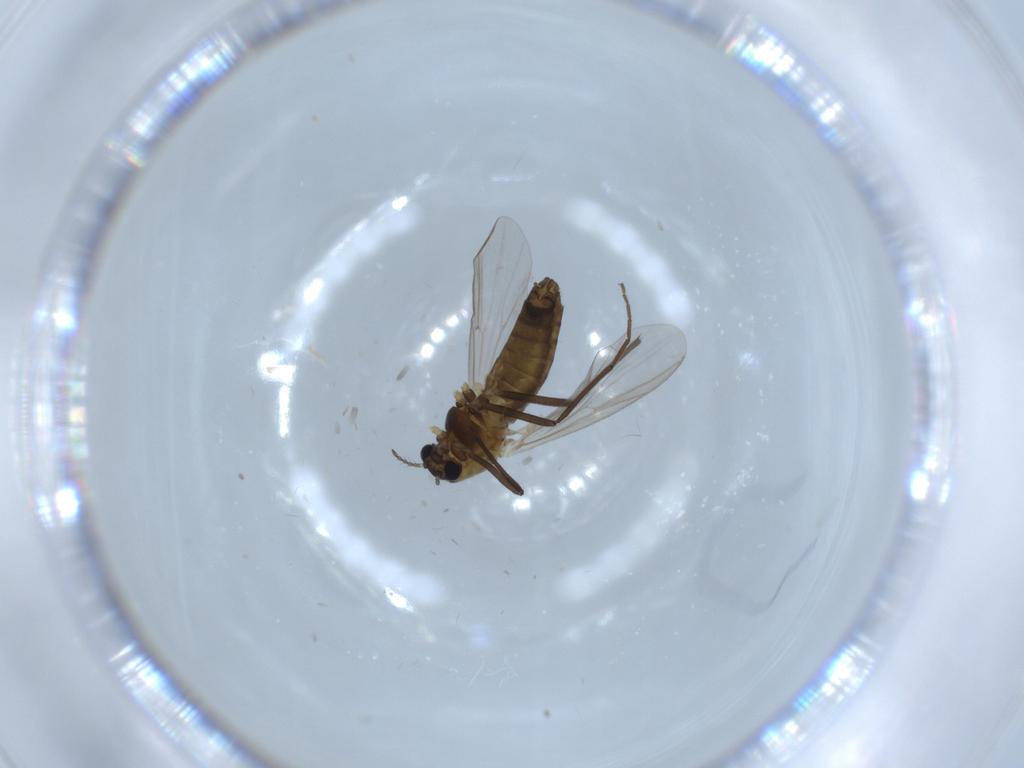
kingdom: Animalia
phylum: Arthropoda
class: Insecta
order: Diptera
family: Chironomidae
